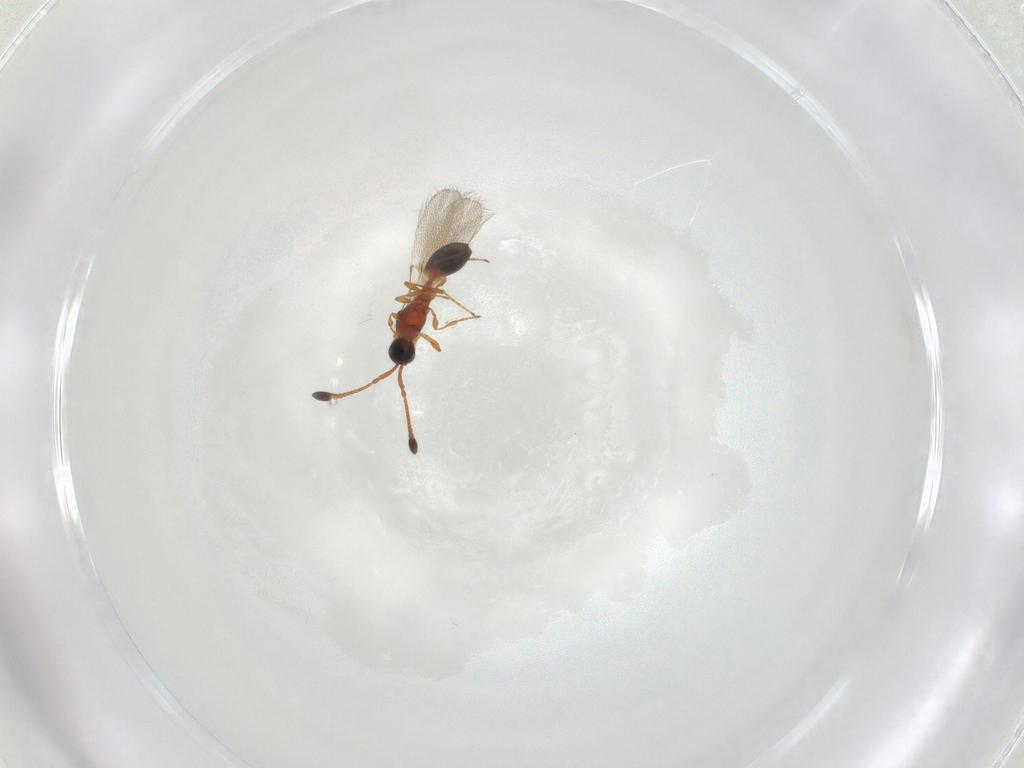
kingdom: Animalia
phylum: Arthropoda
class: Insecta
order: Hymenoptera
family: Diapriidae
